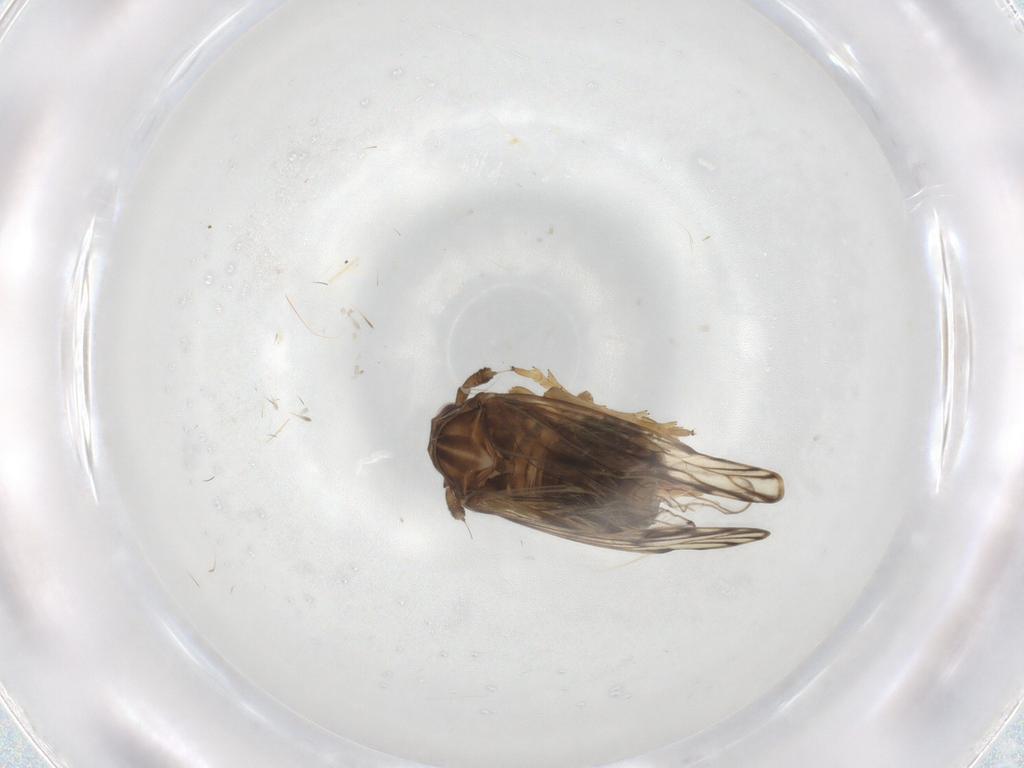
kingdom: Animalia
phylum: Arthropoda
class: Insecta
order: Hemiptera
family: Delphacidae
